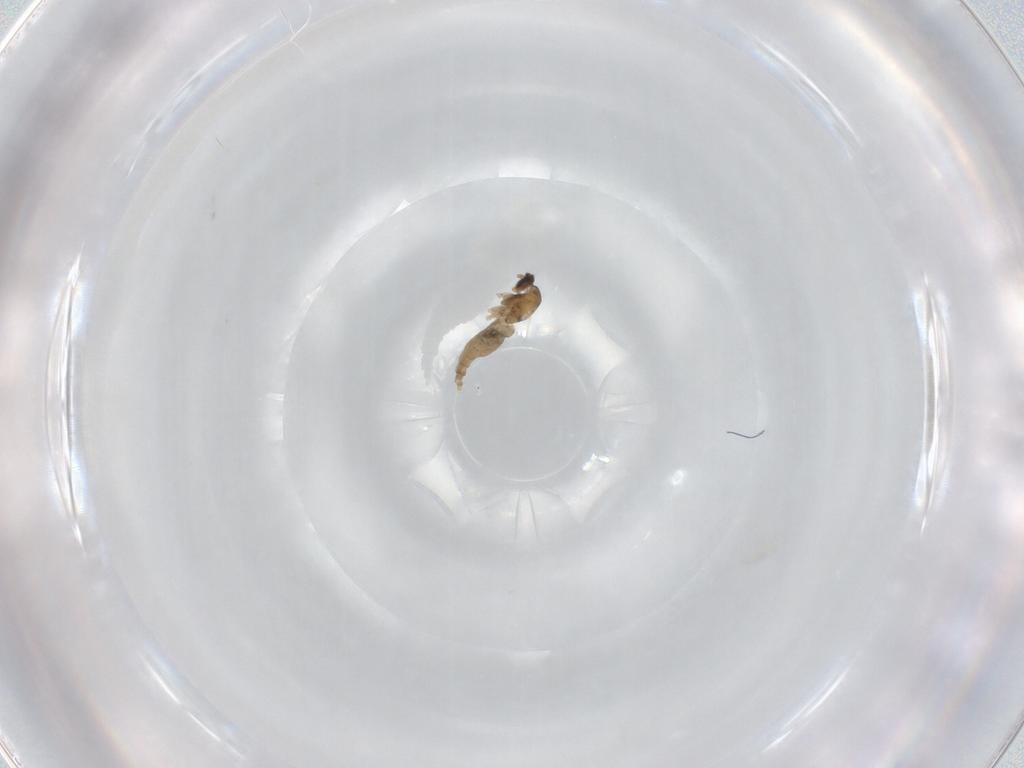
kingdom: Animalia
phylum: Arthropoda
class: Insecta
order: Diptera
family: Cecidomyiidae
